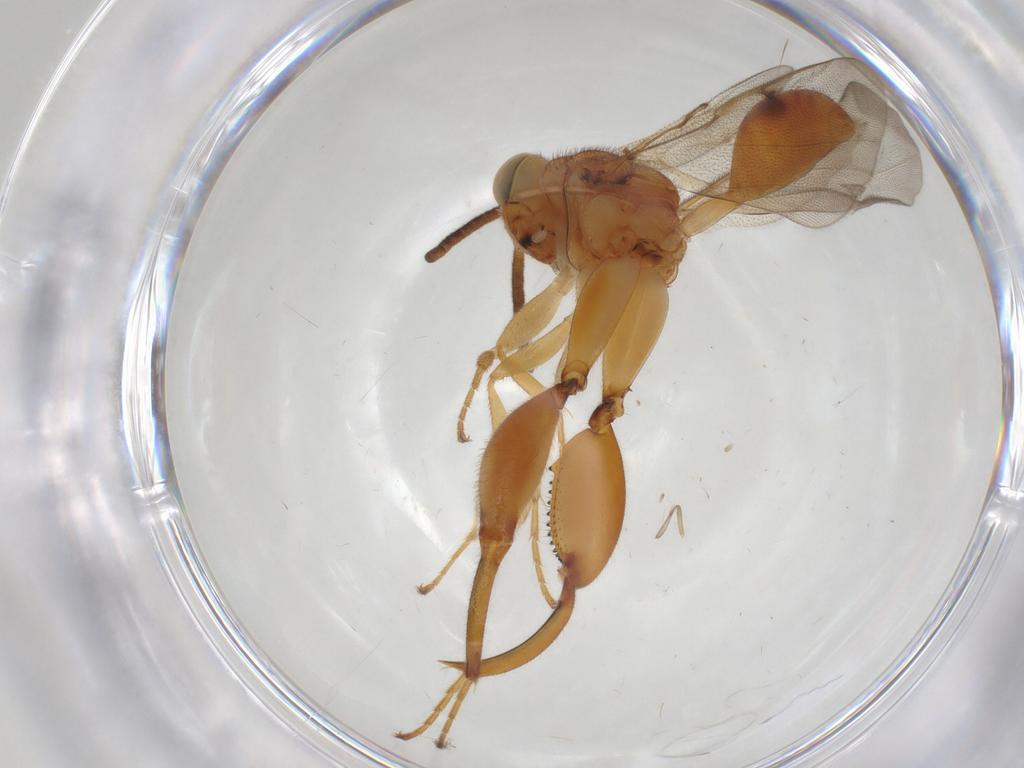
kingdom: Animalia
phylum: Arthropoda
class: Insecta
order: Hymenoptera
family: Chalcididae
